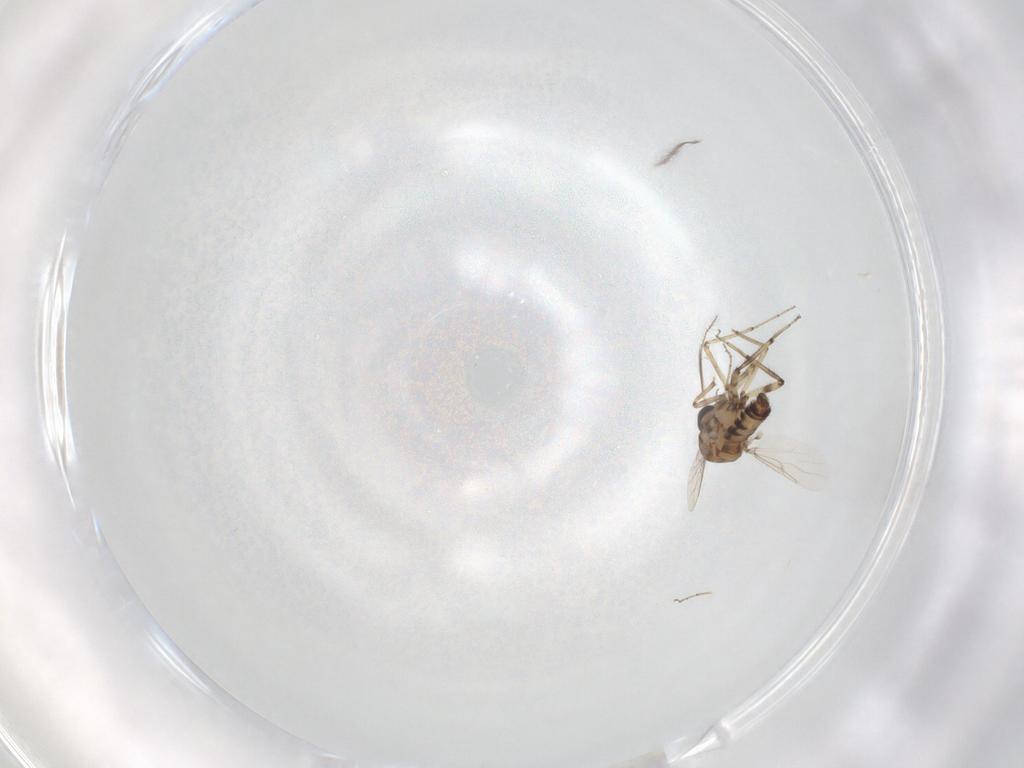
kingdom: Animalia
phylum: Arthropoda
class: Insecta
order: Diptera
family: Ceratopogonidae
